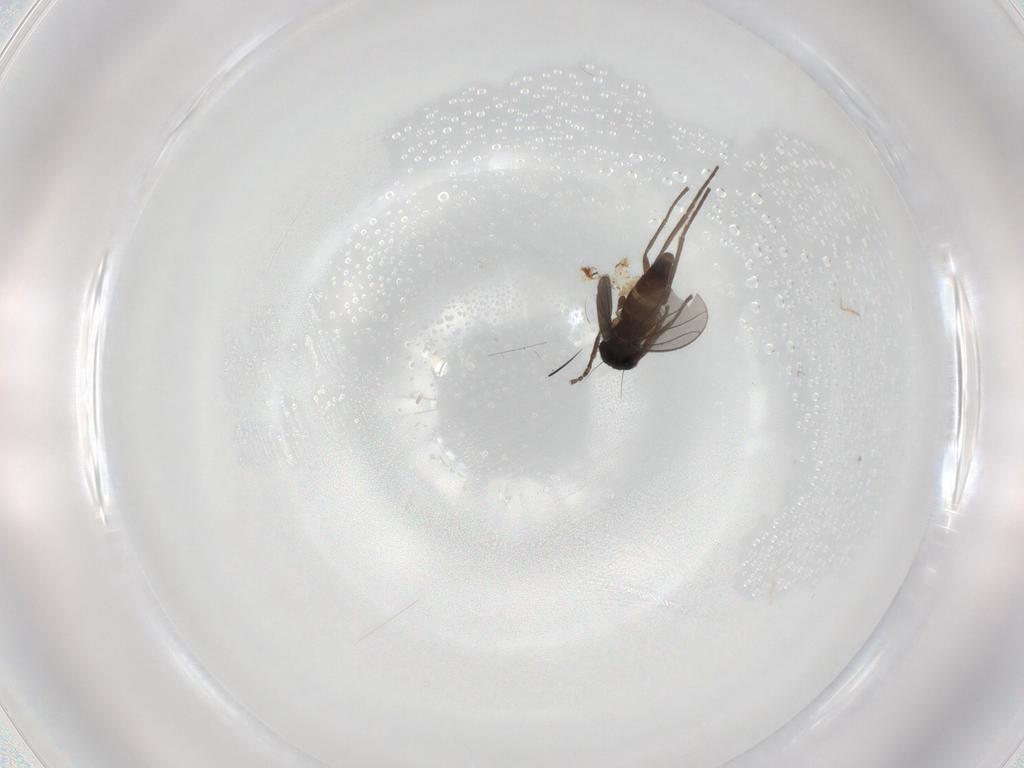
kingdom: Animalia
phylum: Arthropoda
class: Insecta
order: Diptera
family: Dolichopodidae
